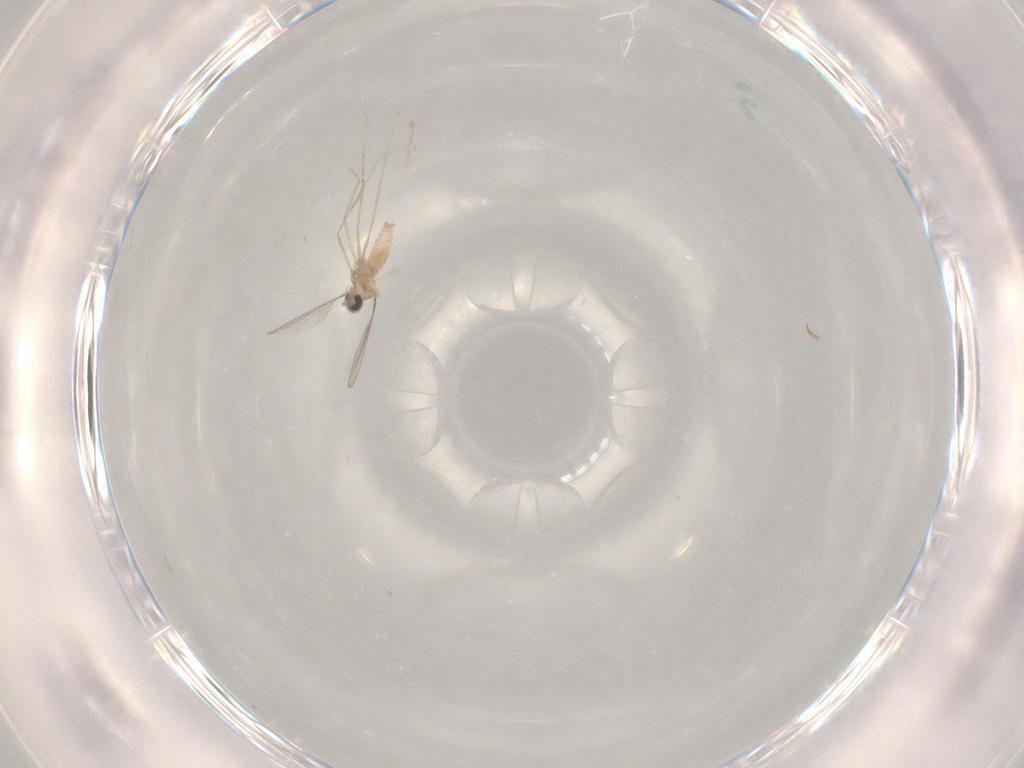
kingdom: Animalia
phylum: Arthropoda
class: Insecta
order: Diptera
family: Cecidomyiidae
